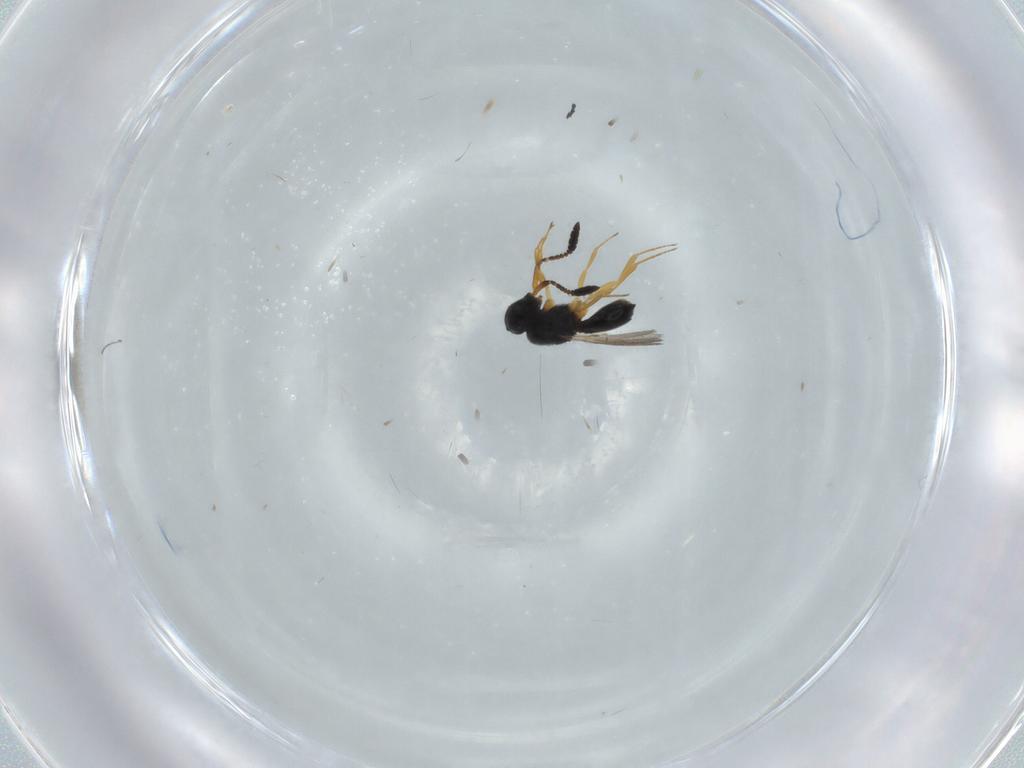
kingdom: Animalia
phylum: Arthropoda
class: Insecta
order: Hymenoptera
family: Scelionidae
